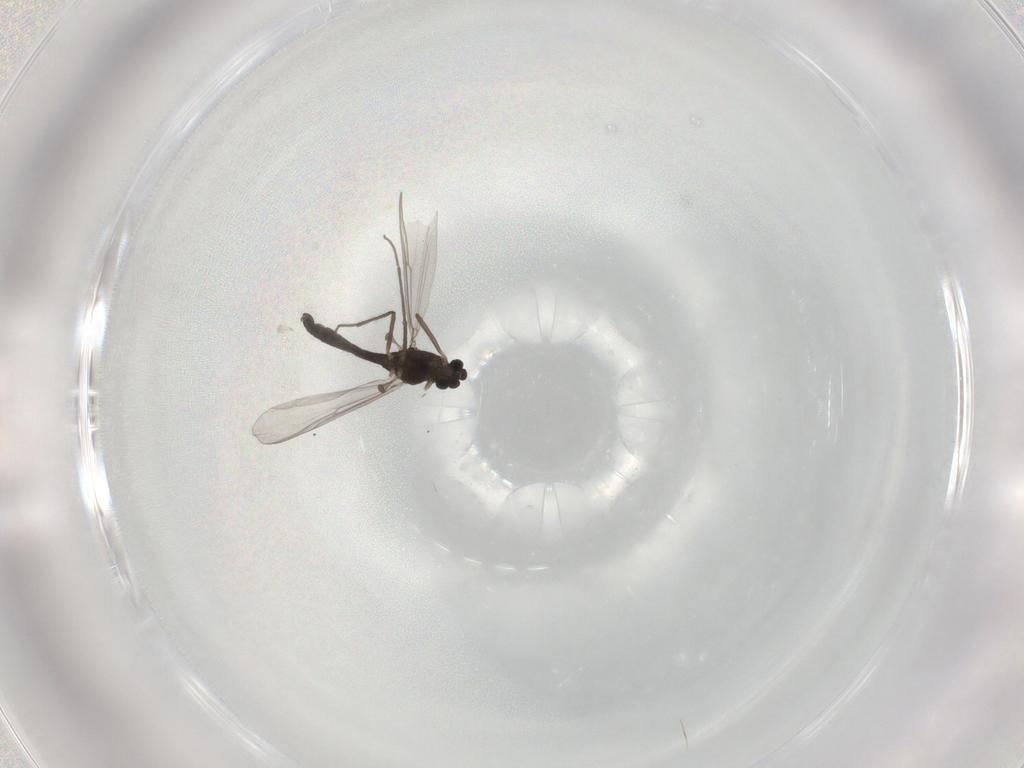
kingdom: Animalia
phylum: Arthropoda
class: Insecta
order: Diptera
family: Chironomidae
